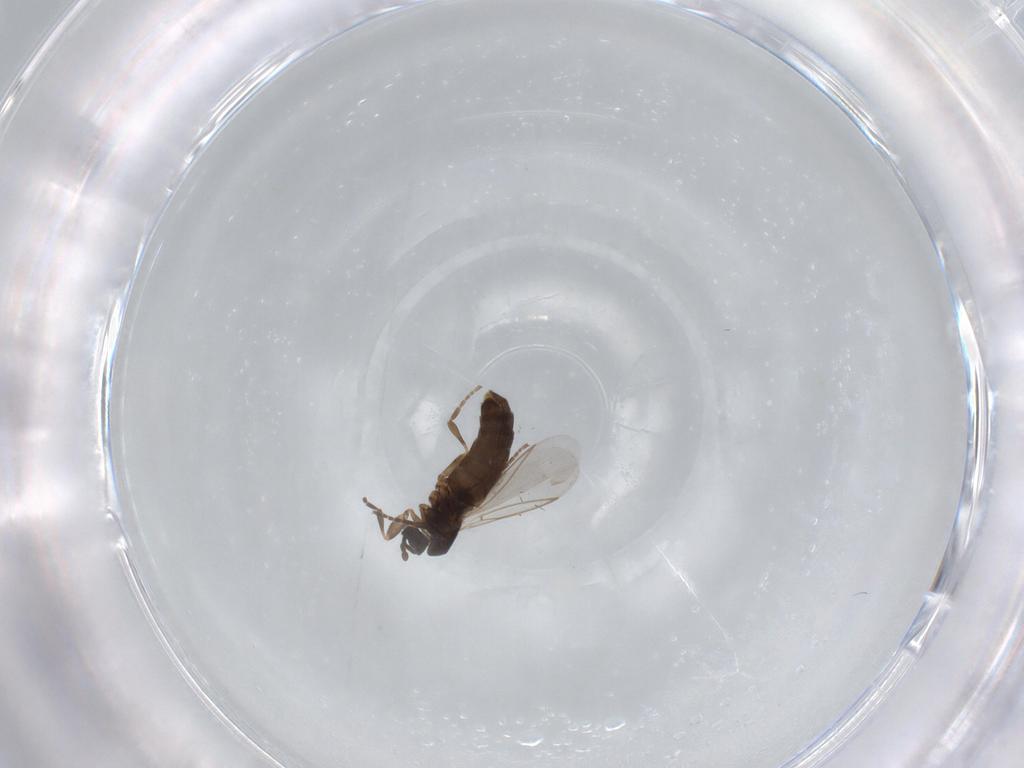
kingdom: Animalia
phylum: Arthropoda
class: Insecta
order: Diptera
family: Scatopsidae
